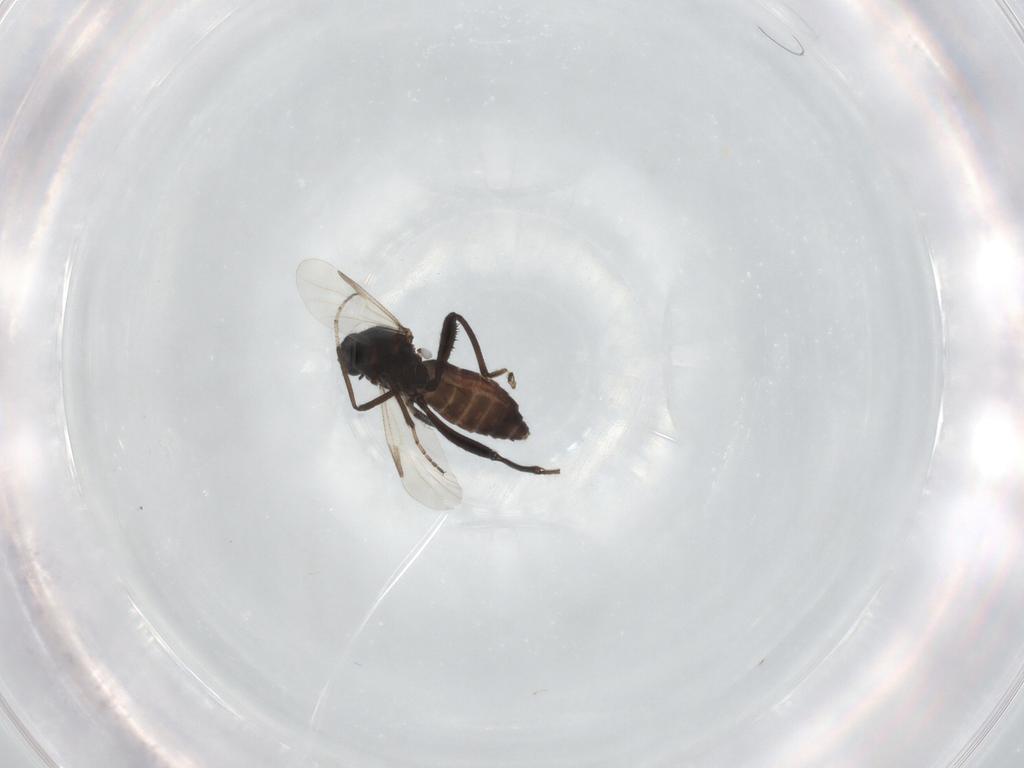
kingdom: Animalia
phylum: Arthropoda
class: Insecta
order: Diptera
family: Ceratopogonidae
